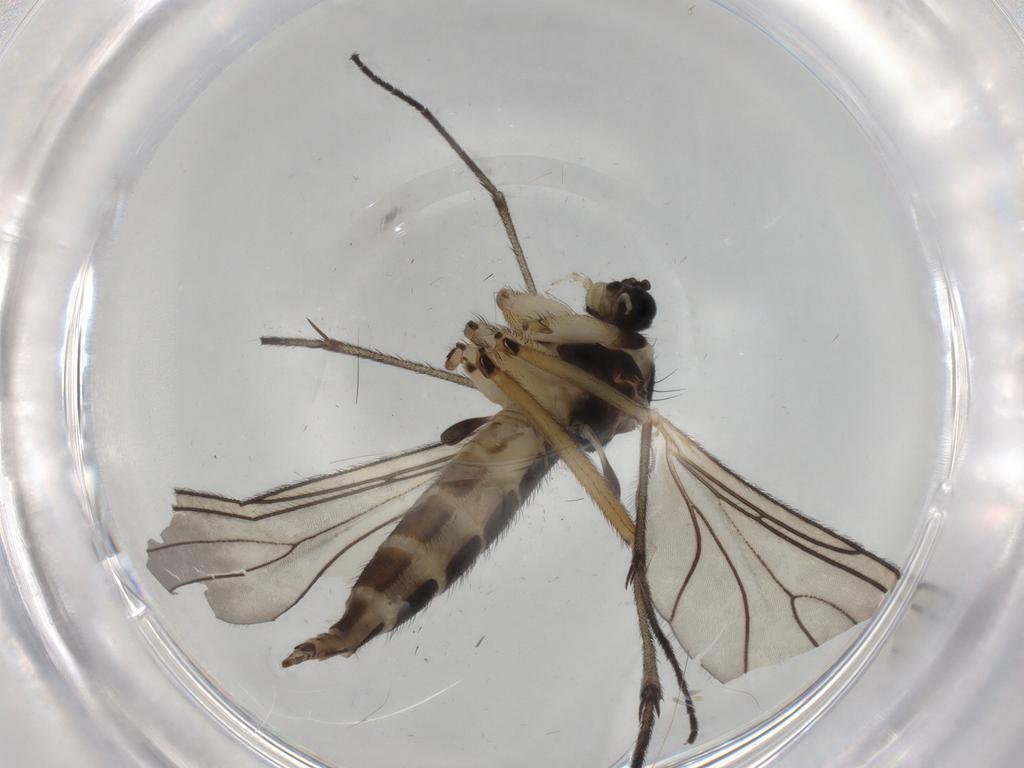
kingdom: Animalia
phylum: Arthropoda
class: Insecta
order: Diptera
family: Sciaridae
